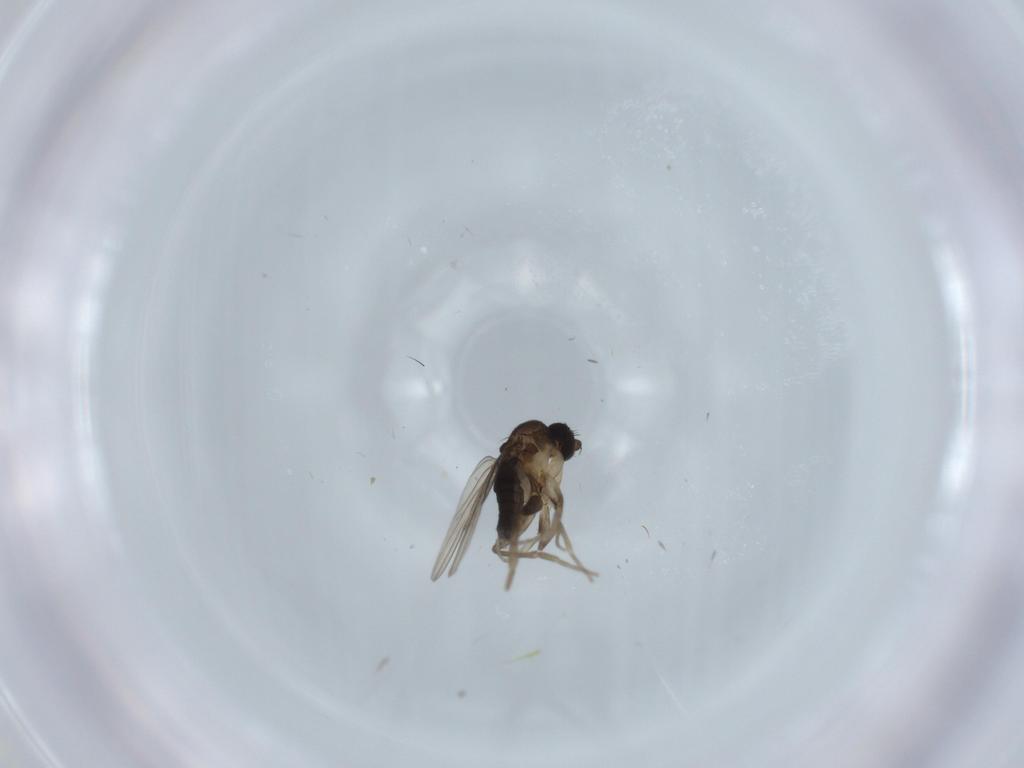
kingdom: Animalia
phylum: Arthropoda
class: Insecta
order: Diptera
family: Phoridae
